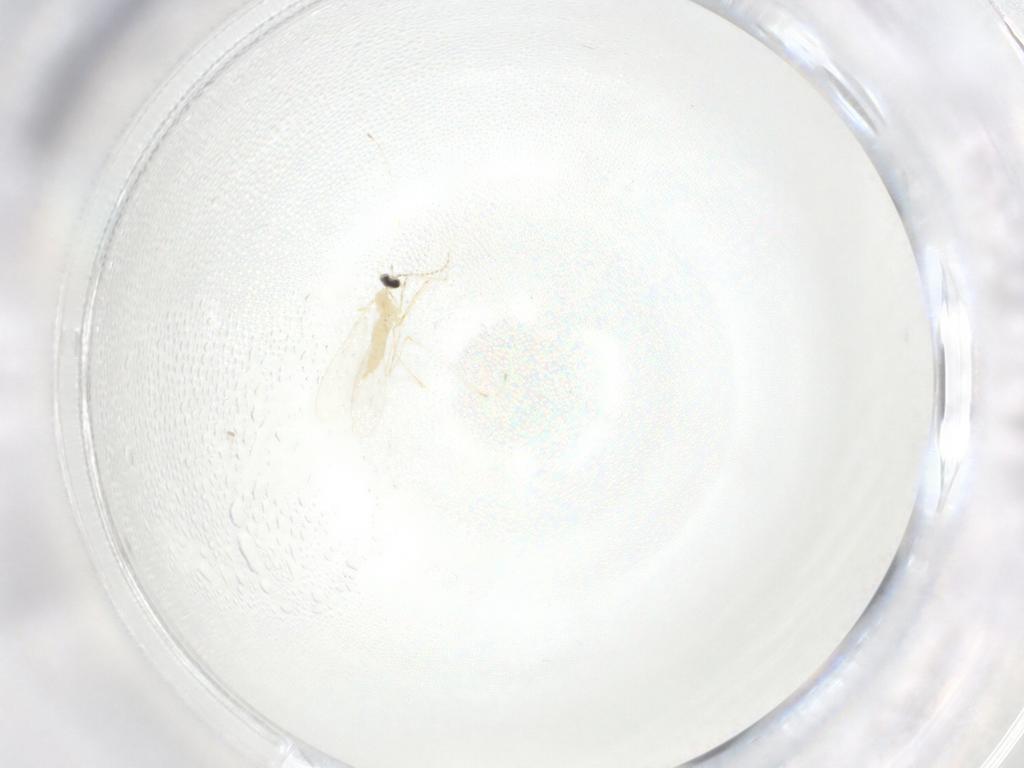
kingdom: Animalia
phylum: Arthropoda
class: Insecta
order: Diptera
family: Cecidomyiidae
